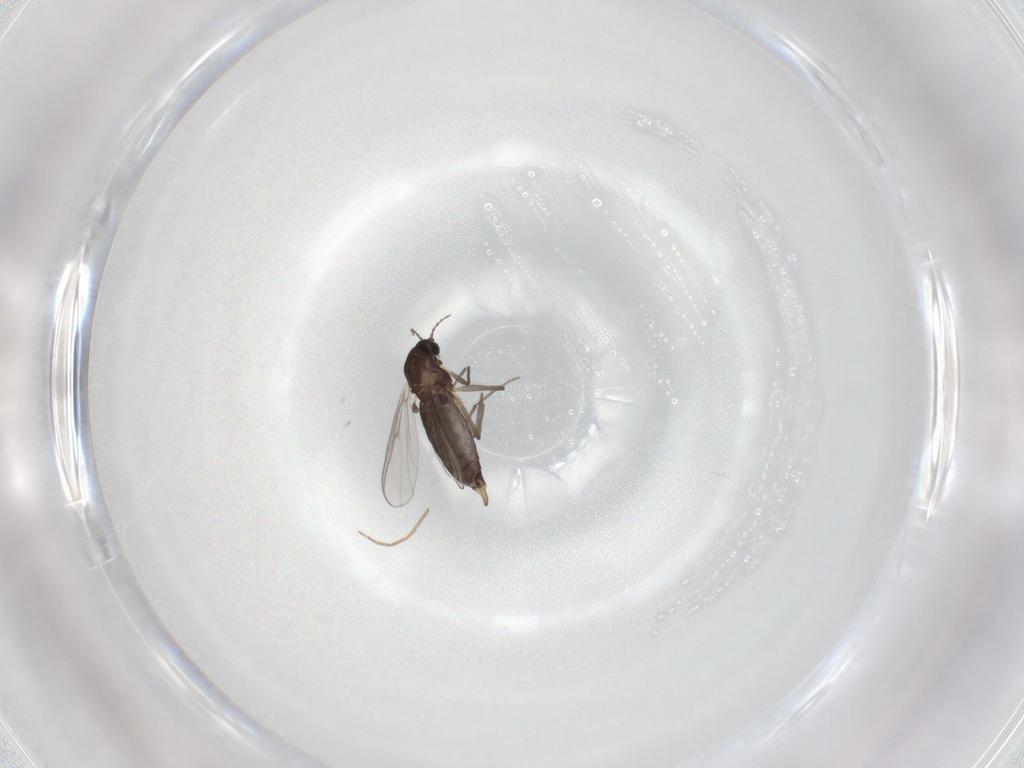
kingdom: Animalia
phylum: Arthropoda
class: Insecta
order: Diptera
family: Chironomidae
